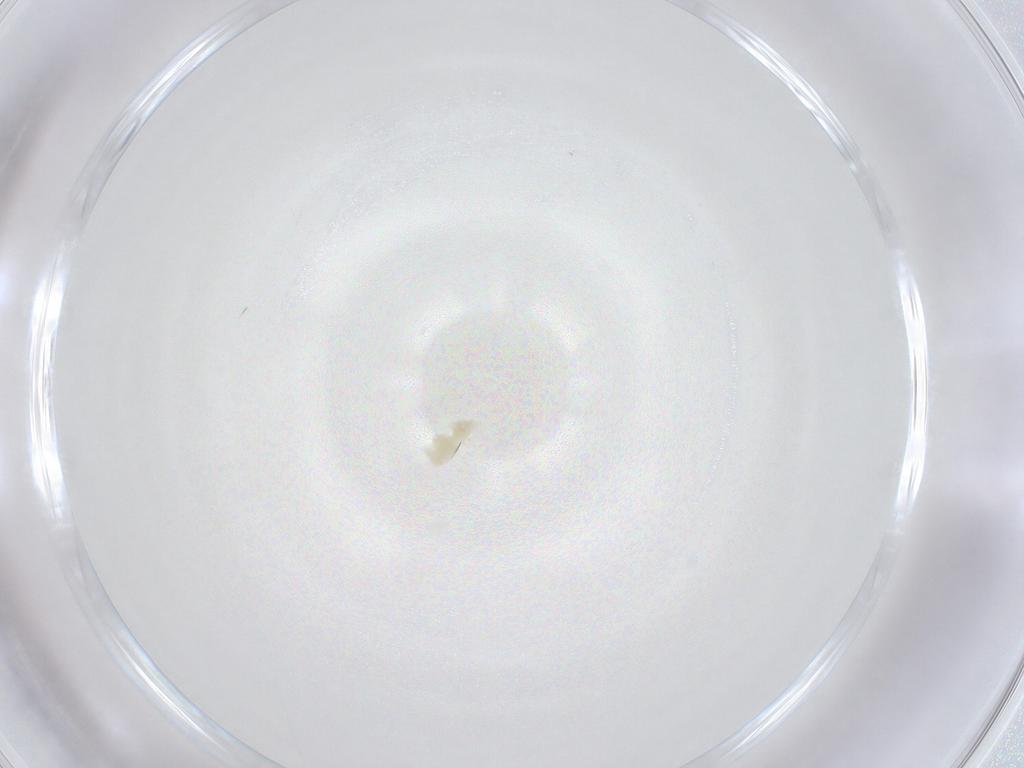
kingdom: Animalia
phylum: Arthropoda
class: Arachnida
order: Trombidiformes
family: Eupodidae
